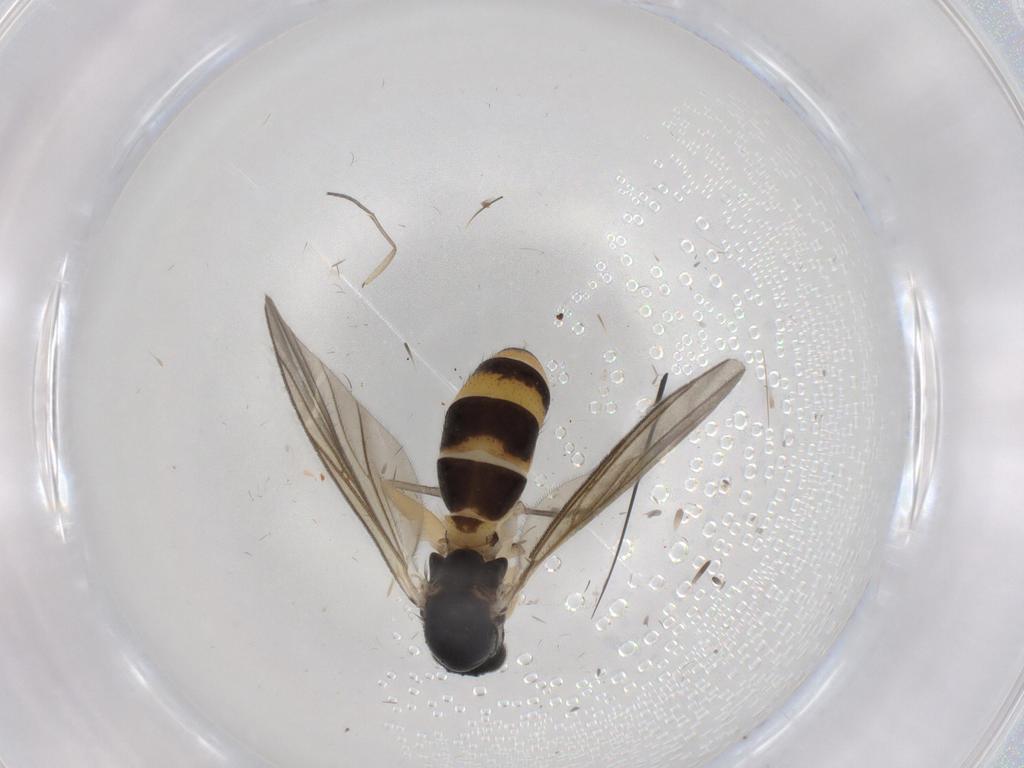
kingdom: Animalia
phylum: Arthropoda
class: Insecta
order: Diptera
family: Mycetophilidae
